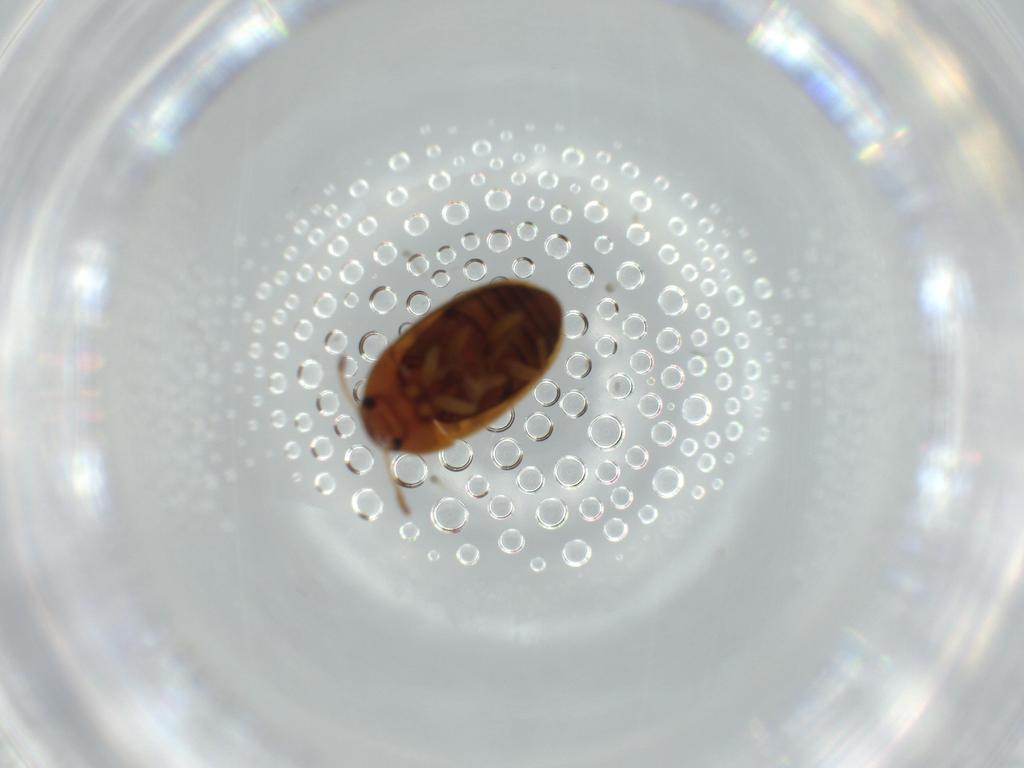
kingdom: Animalia
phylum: Arthropoda
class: Insecta
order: Coleoptera
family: Mycetophagidae
